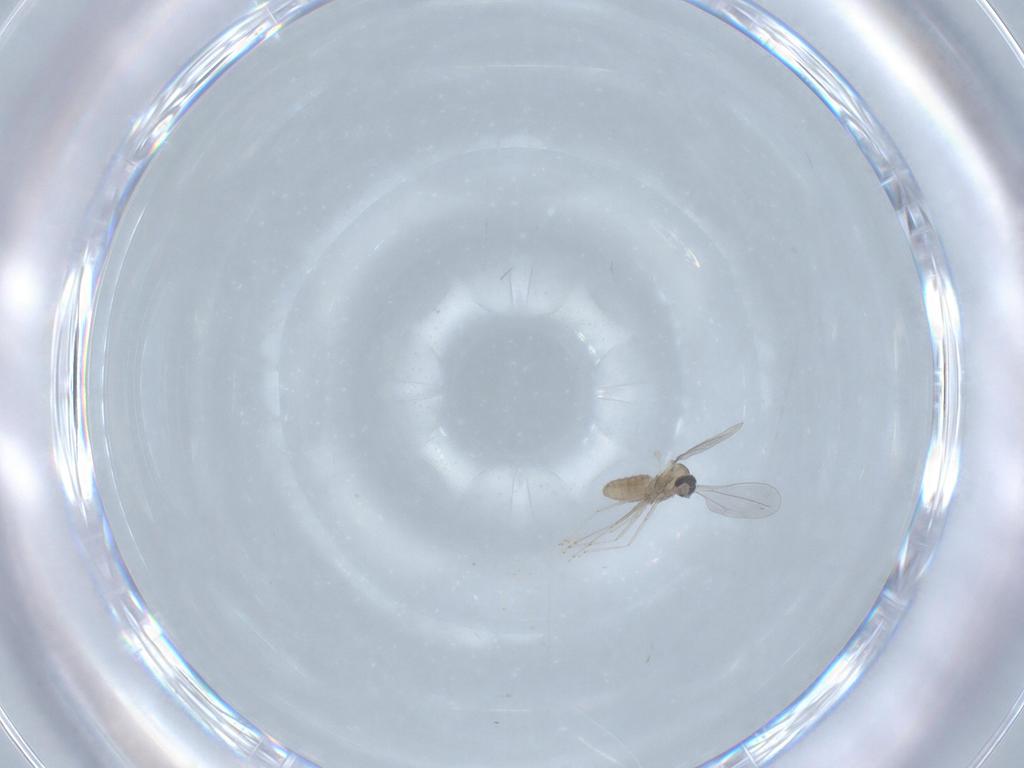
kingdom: Animalia
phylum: Arthropoda
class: Insecta
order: Diptera
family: Cecidomyiidae
